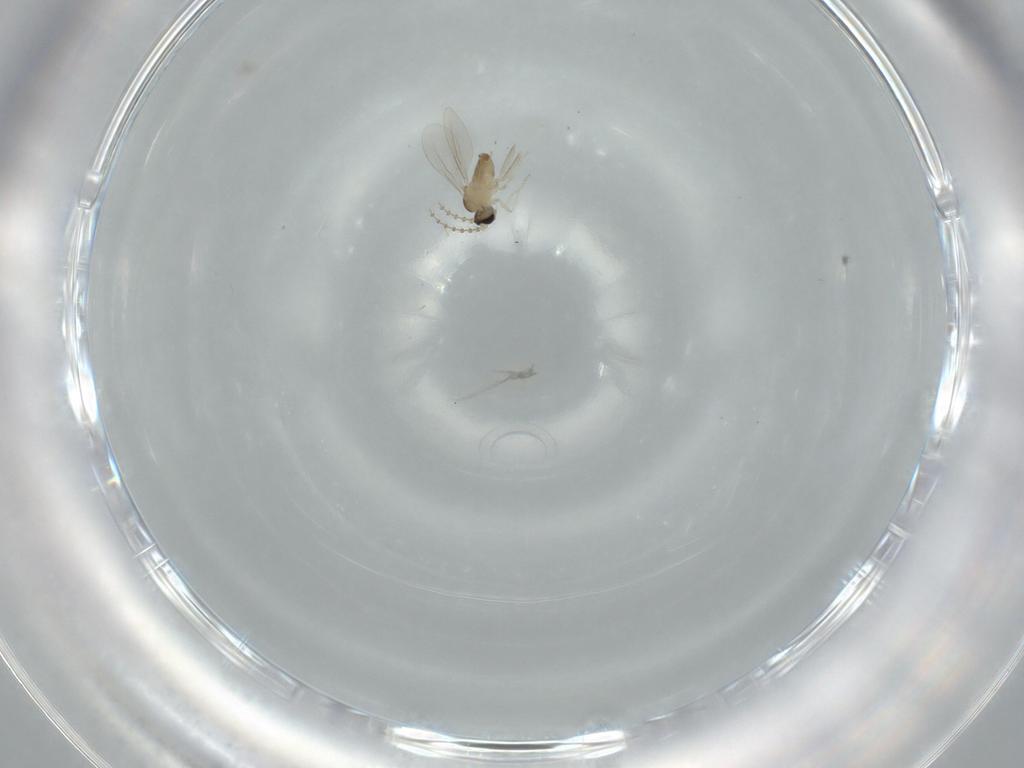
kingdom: Animalia
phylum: Arthropoda
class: Insecta
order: Diptera
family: Cecidomyiidae
